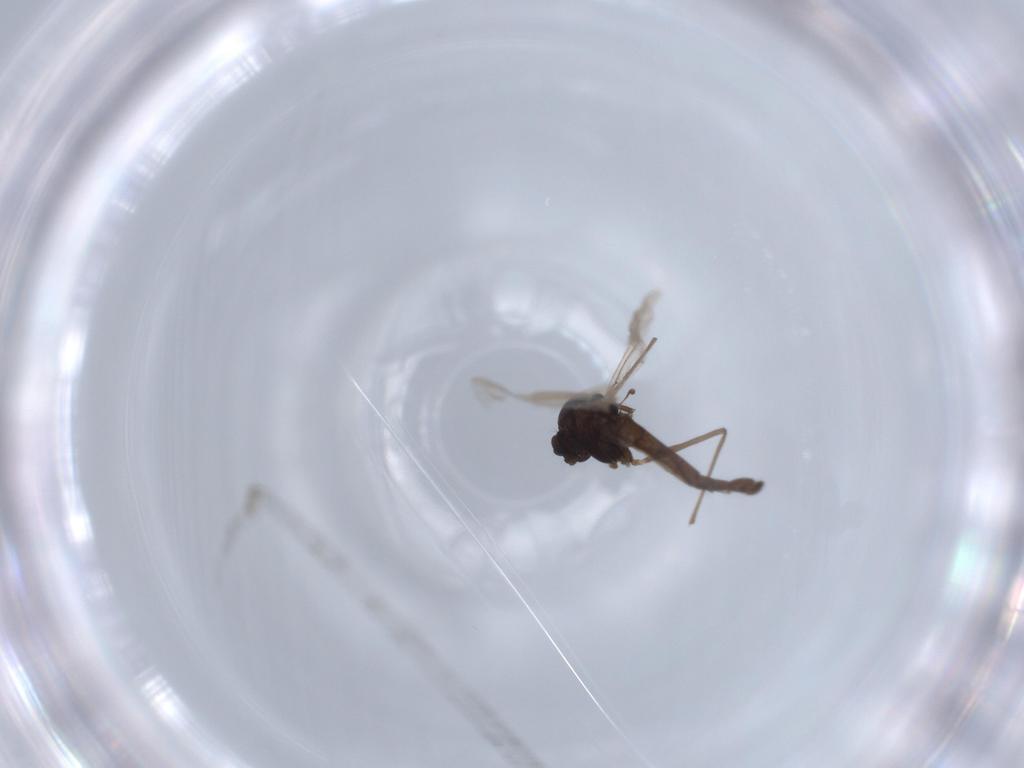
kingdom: Animalia
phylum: Arthropoda
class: Insecta
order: Diptera
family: Chironomidae
